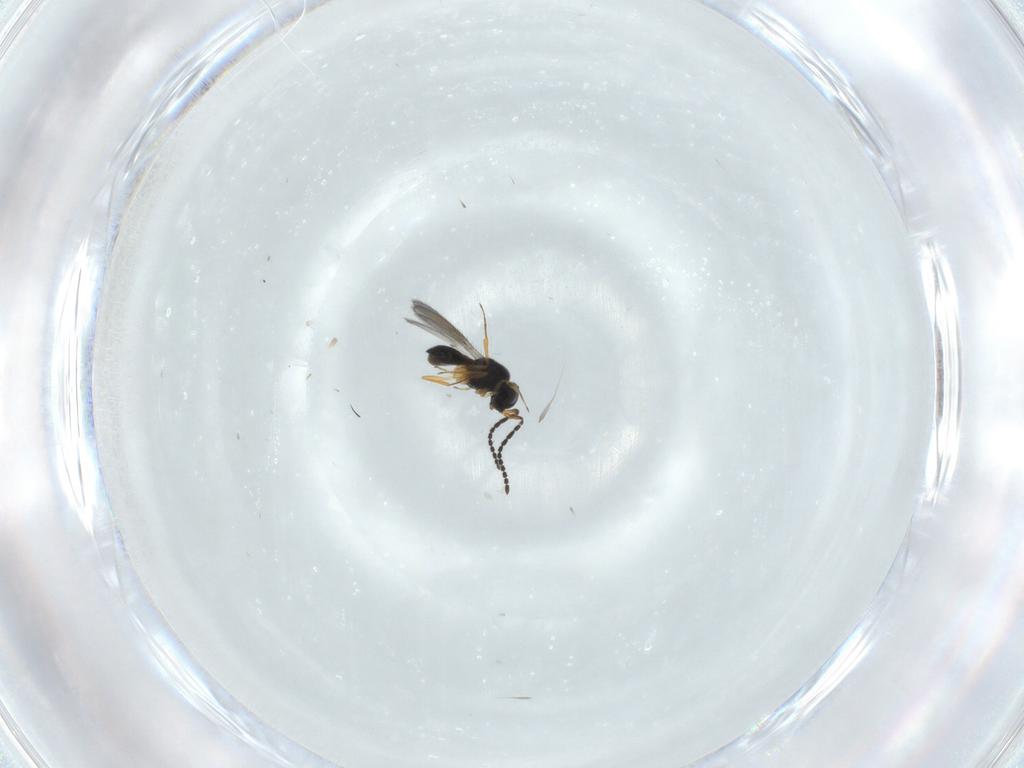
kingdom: Animalia
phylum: Arthropoda
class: Insecta
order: Hymenoptera
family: Scelionidae
